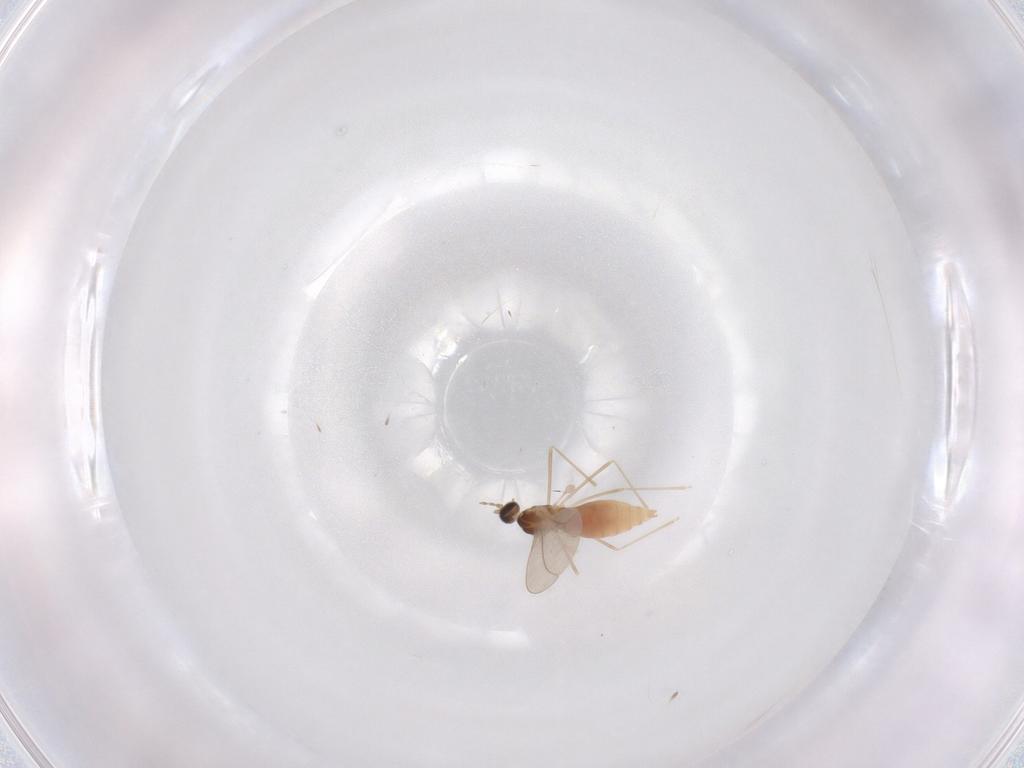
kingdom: Animalia
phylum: Arthropoda
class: Insecta
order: Diptera
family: Cecidomyiidae
